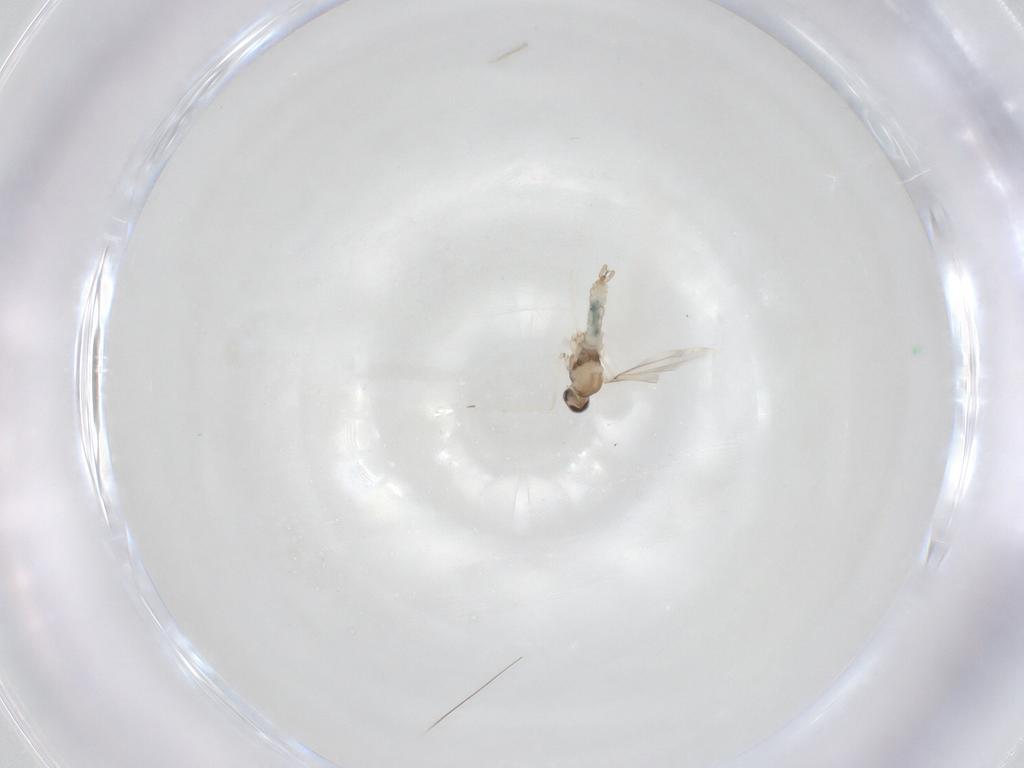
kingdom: Animalia
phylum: Arthropoda
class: Insecta
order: Diptera
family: Cecidomyiidae
